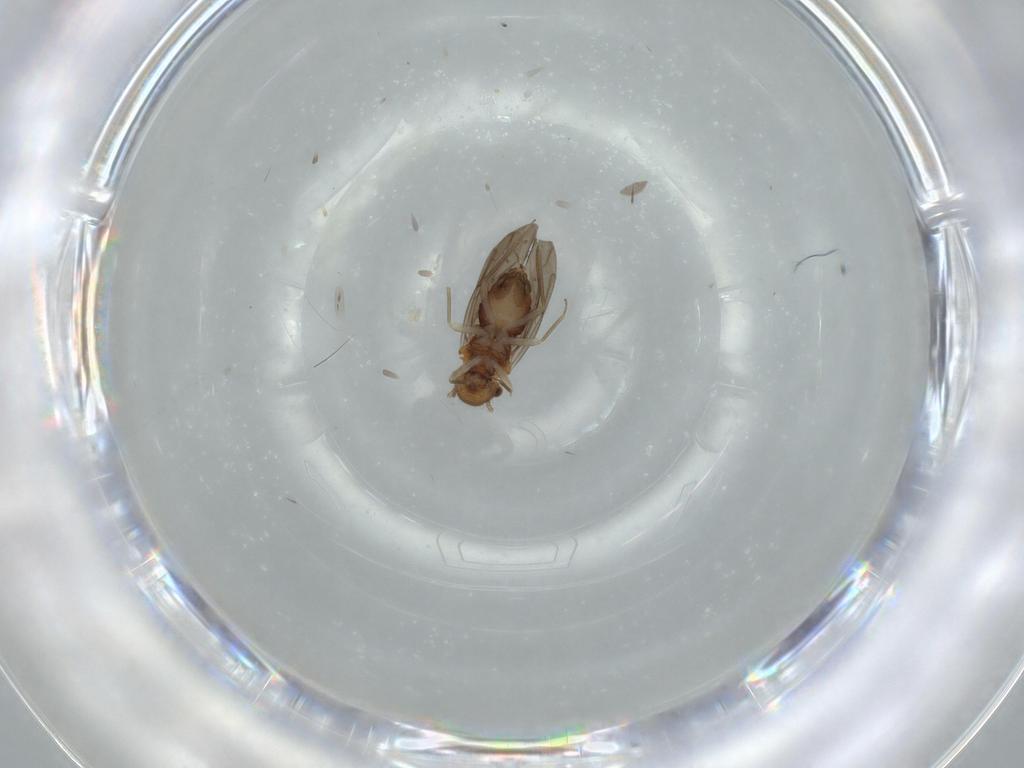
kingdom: Animalia
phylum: Arthropoda
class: Insecta
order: Psocodea
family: Ectopsocidae
